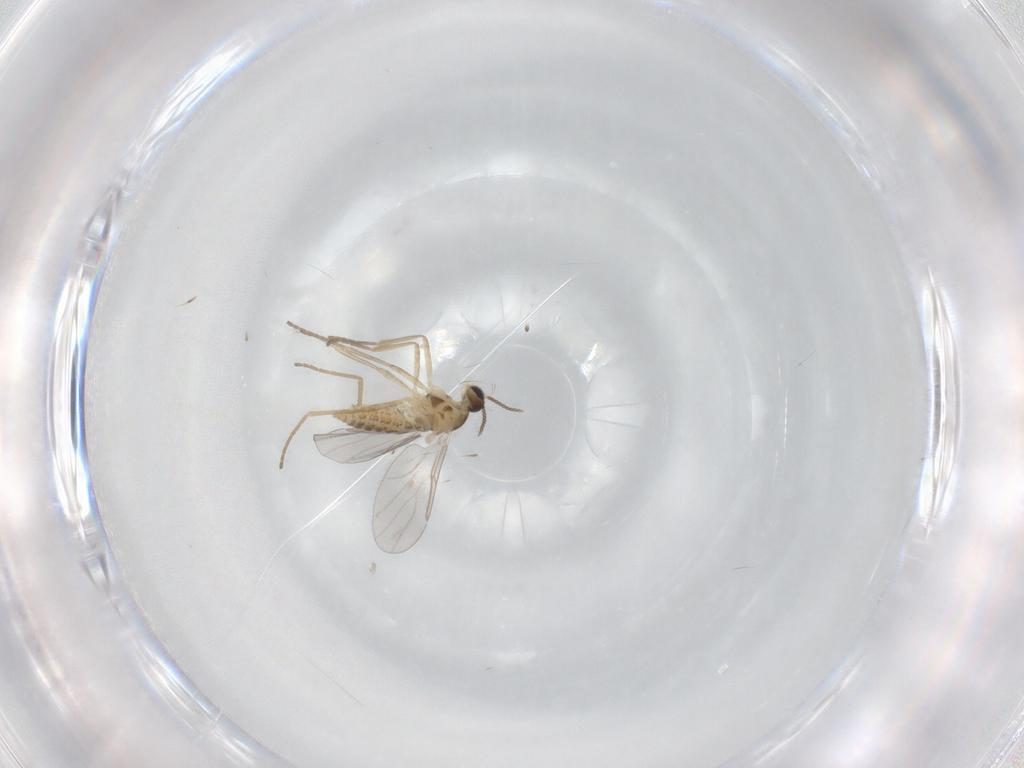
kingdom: Animalia
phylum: Arthropoda
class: Insecta
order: Diptera
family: Cecidomyiidae
